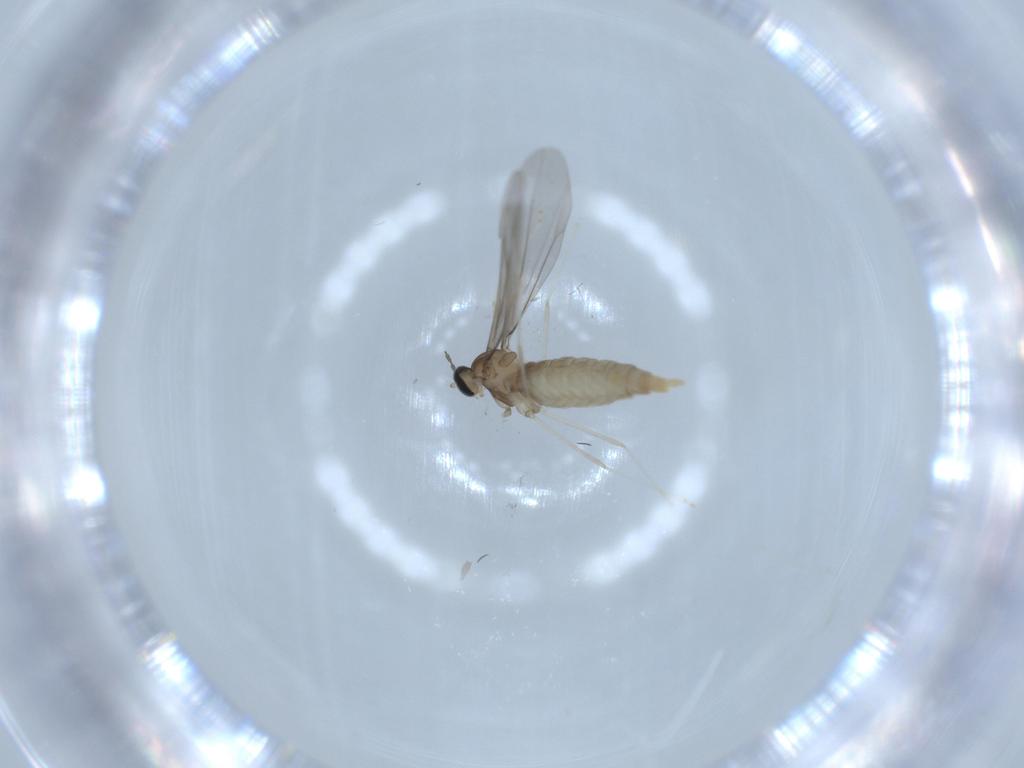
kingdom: Animalia
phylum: Arthropoda
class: Insecta
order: Diptera
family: Cecidomyiidae
